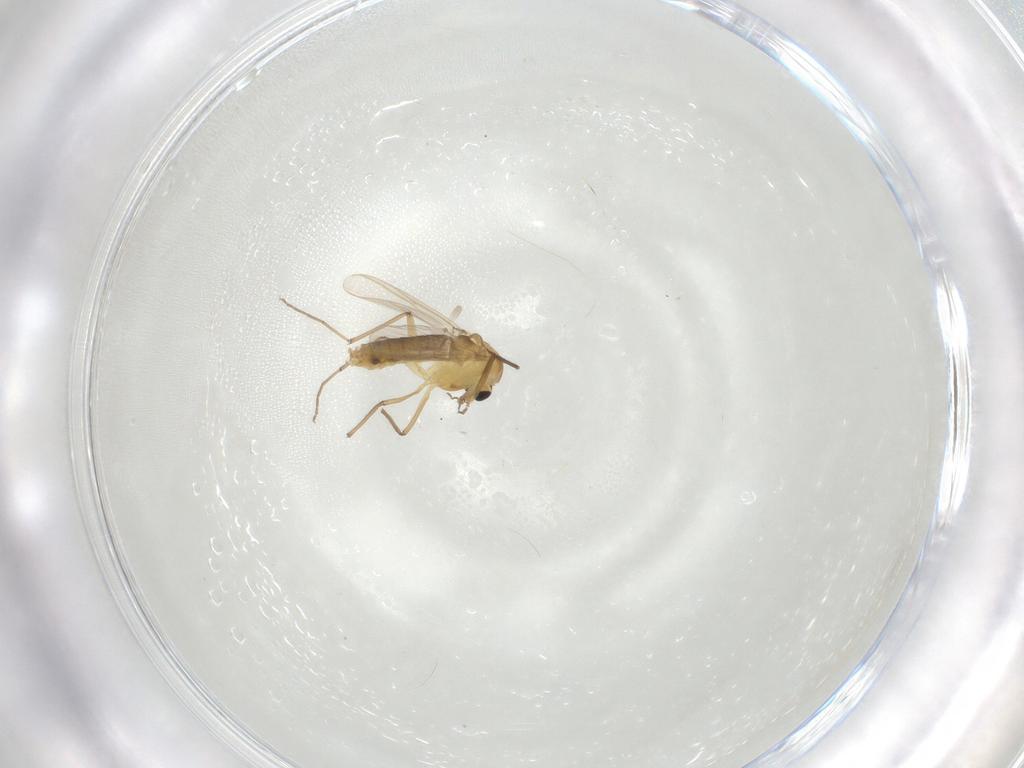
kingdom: Animalia
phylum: Arthropoda
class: Insecta
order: Diptera
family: Chironomidae
